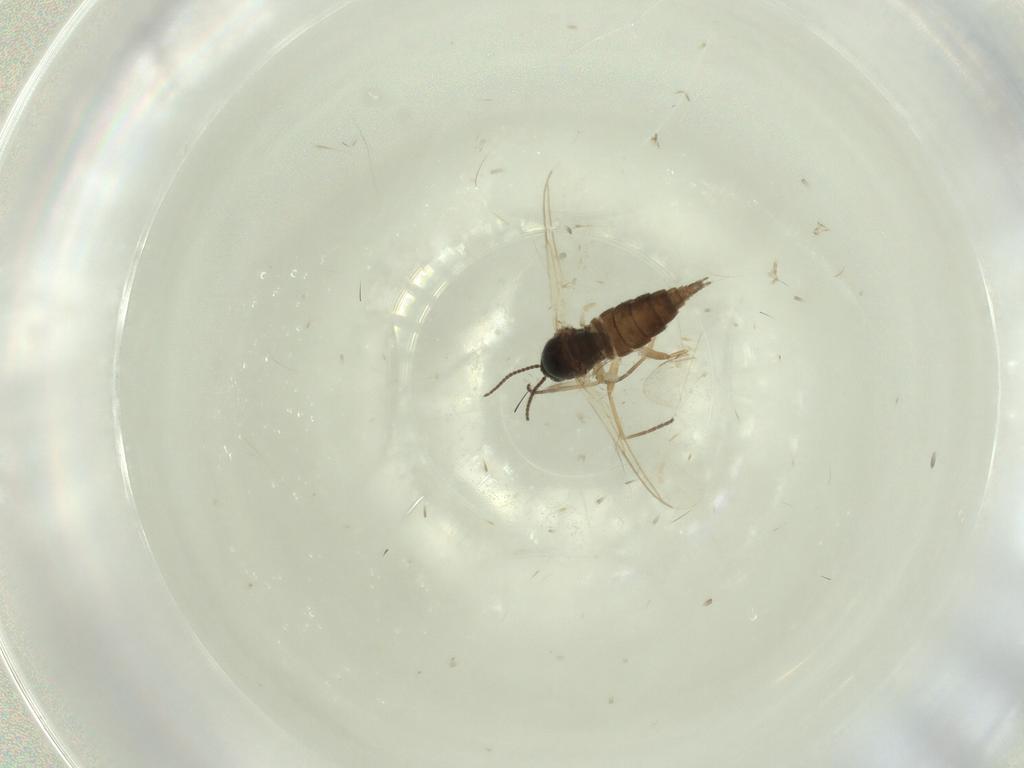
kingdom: Animalia
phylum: Arthropoda
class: Insecta
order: Diptera
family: Sciaridae
